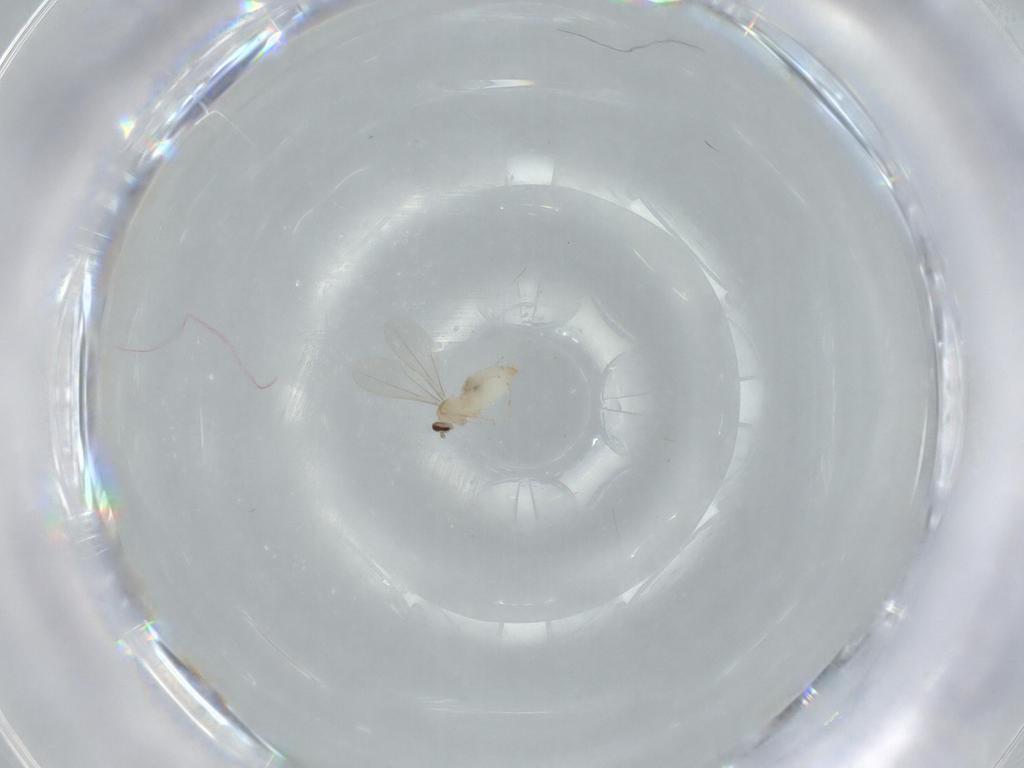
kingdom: Animalia
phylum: Arthropoda
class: Insecta
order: Diptera
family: Cecidomyiidae
